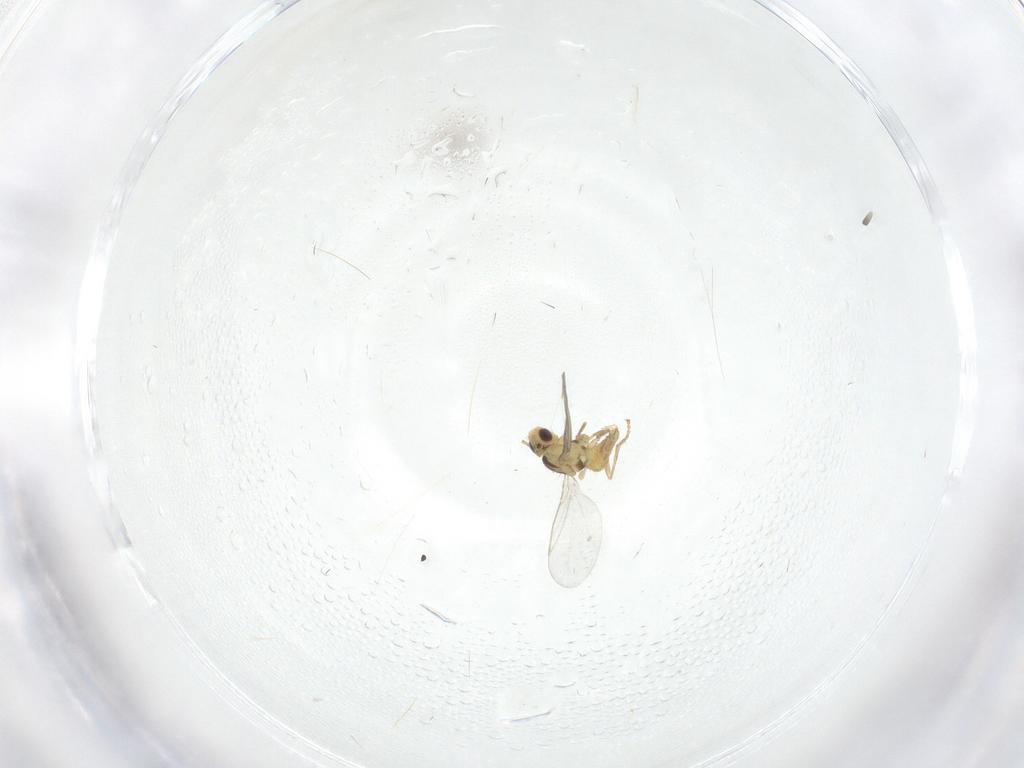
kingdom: Animalia
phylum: Arthropoda
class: Insecta
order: Diptera
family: Agromyzidae
